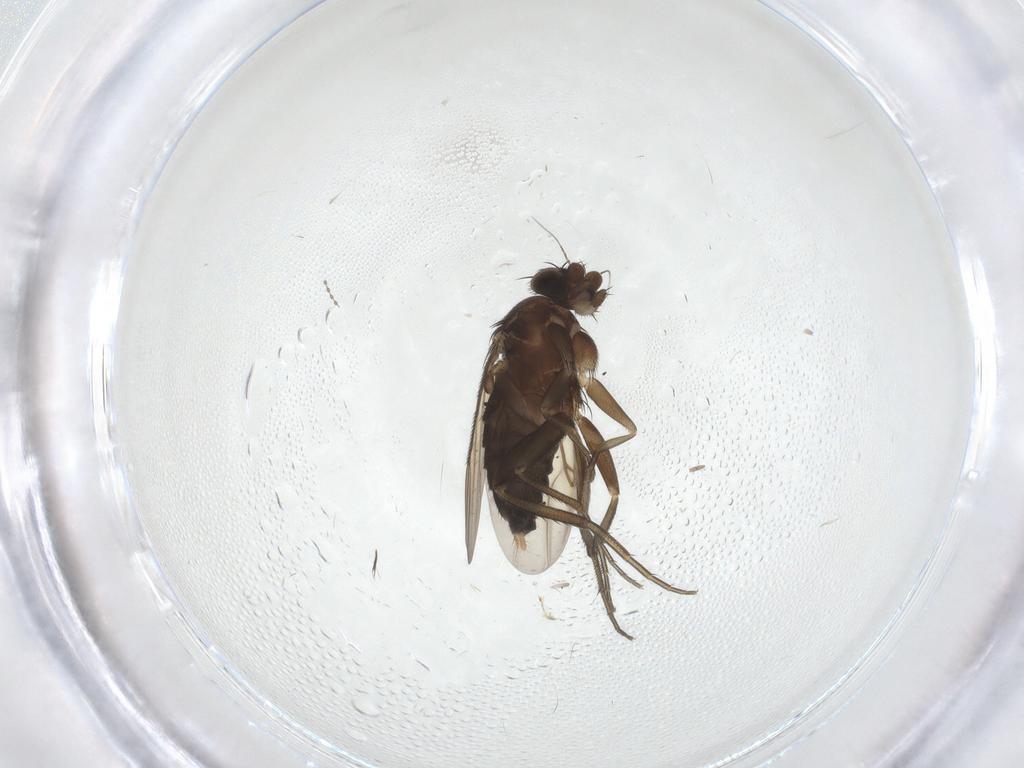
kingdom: Animalia
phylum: Arthropoda
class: Insecta
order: Diptera
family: Phoridae
